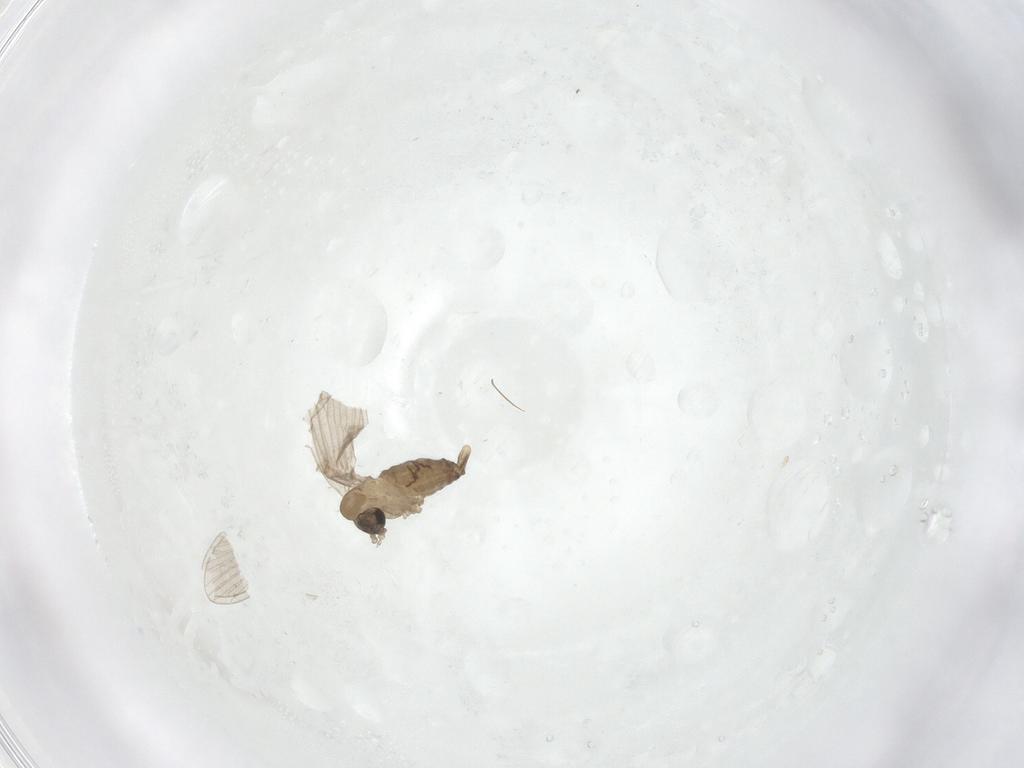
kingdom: Animalia
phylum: Arthropoda
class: Insecta
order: Diptera
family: Psychodidae
